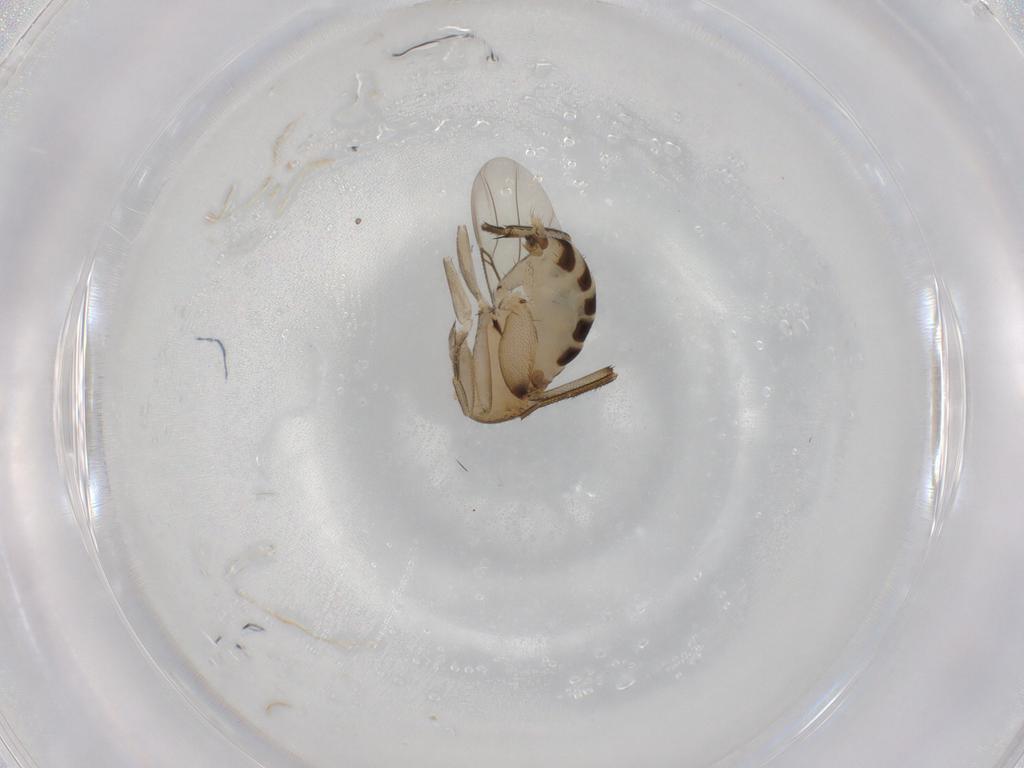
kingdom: Animalia
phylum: Arthropoda
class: Insecta
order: Diptera
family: Phoridae
